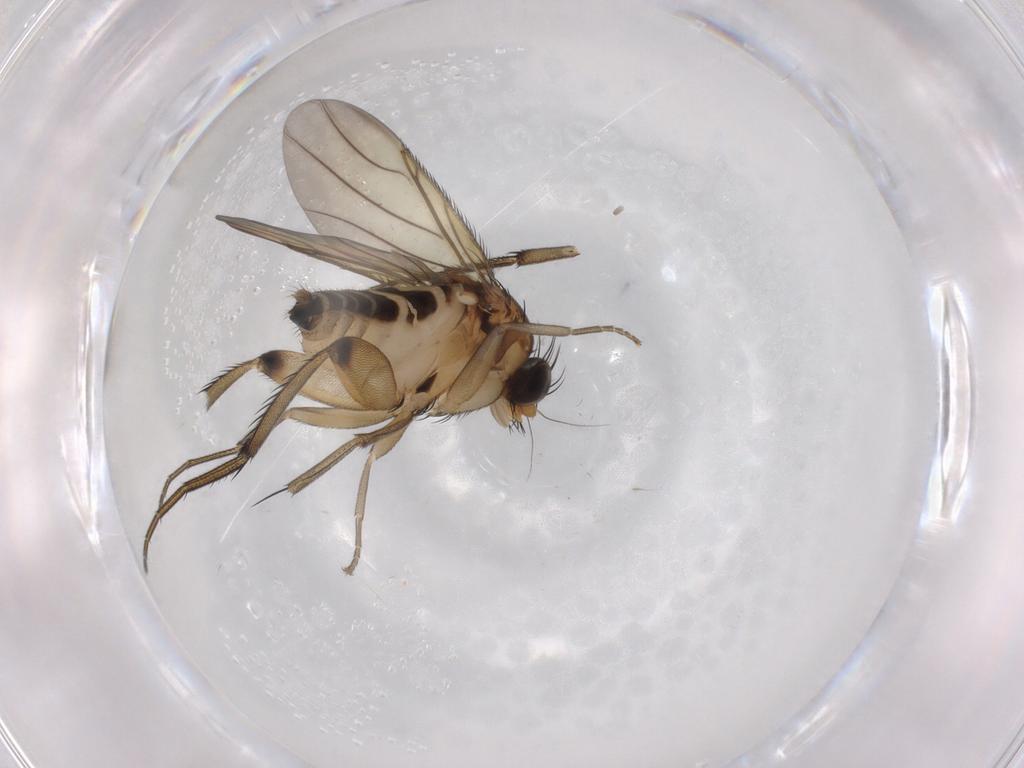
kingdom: Animalia
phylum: Arthropoda
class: Insecta
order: Diptera
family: Phoridae
